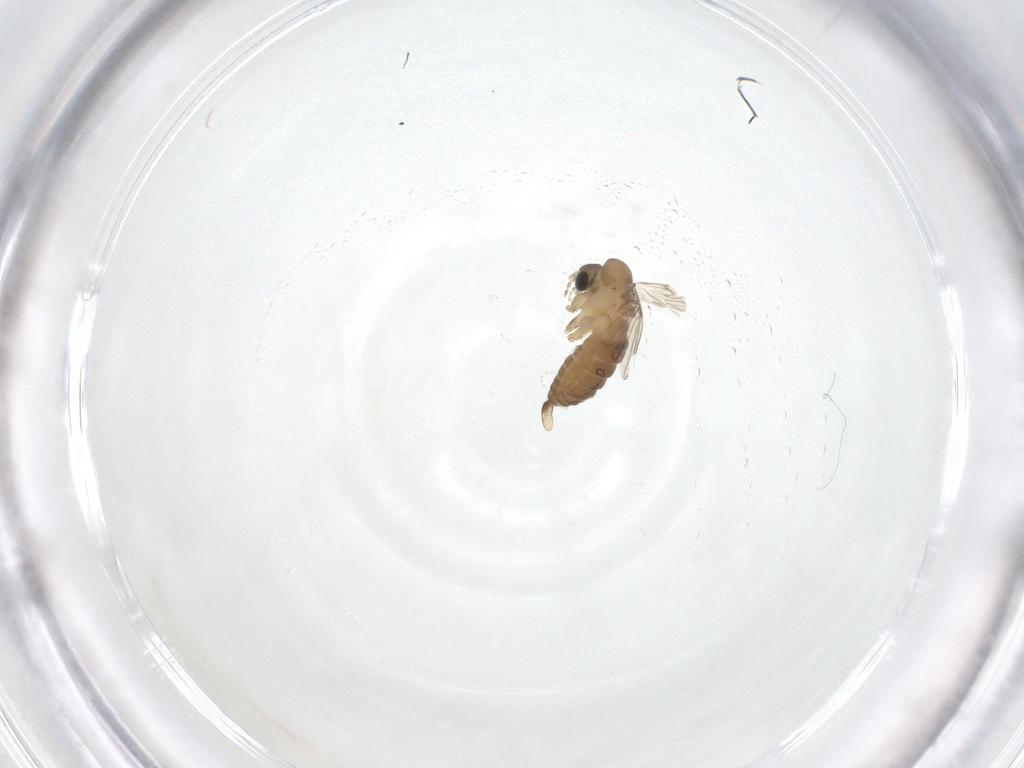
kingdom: Animalia
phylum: Arthropoda
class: Insecta
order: Diptera
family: Psychodidae
